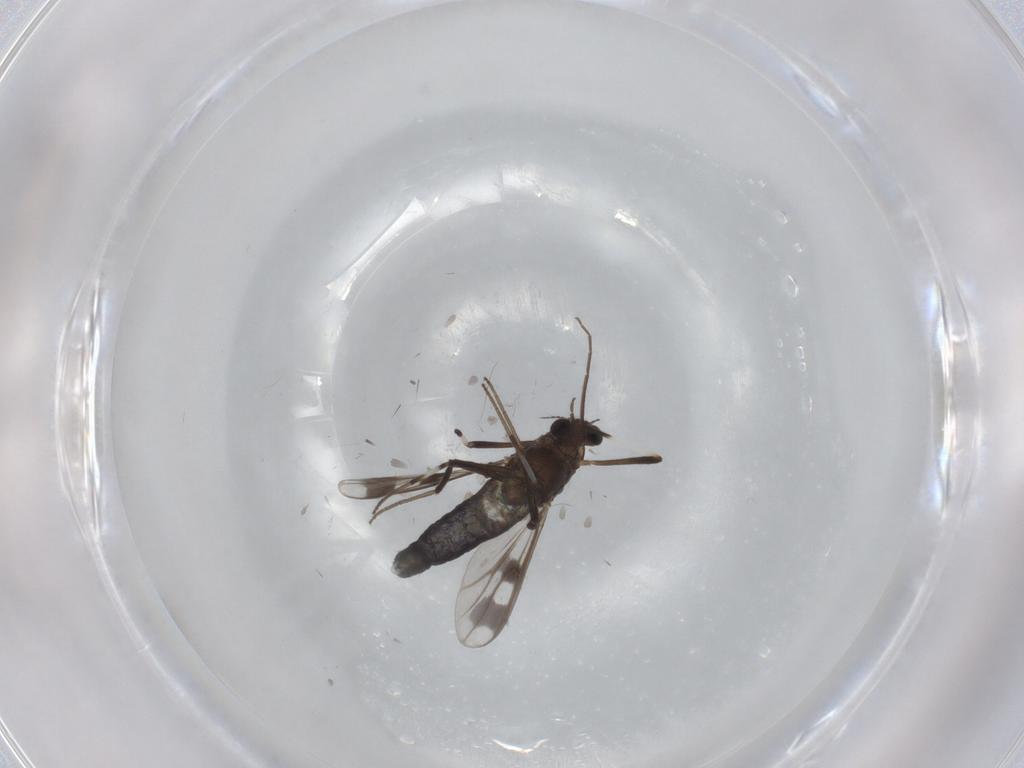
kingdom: Animalia
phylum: Arthropoda
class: Insecta
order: Diptera
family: Chironomidae
